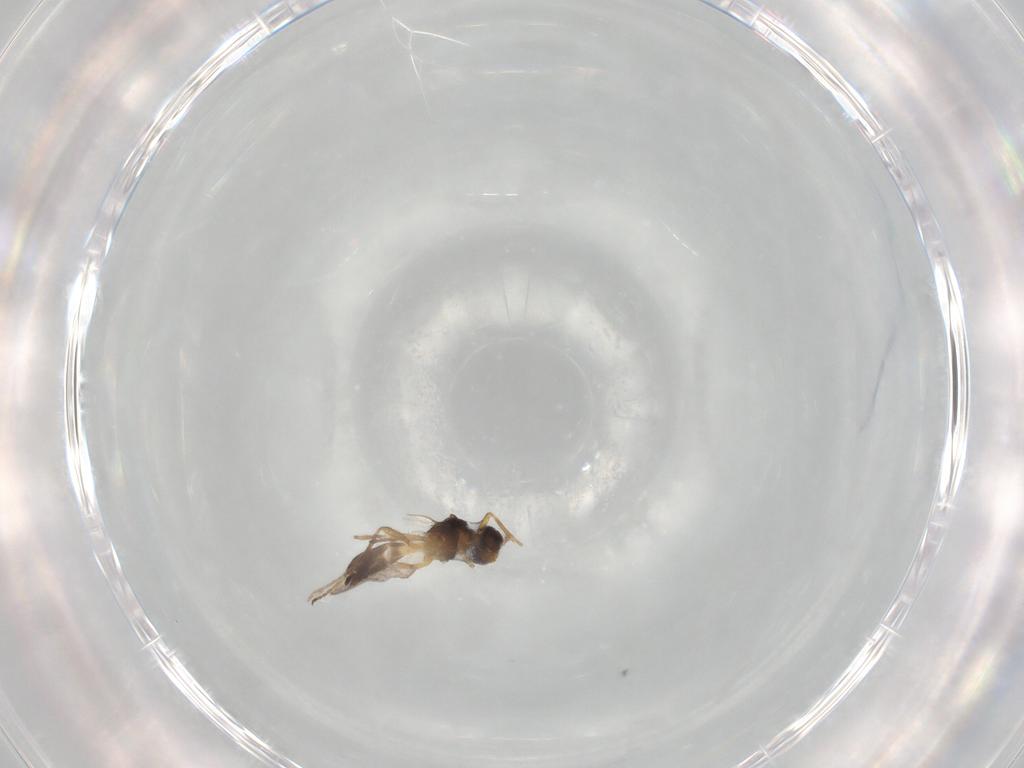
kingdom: Animalia
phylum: Arthropoda
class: Insecta
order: Hymenoptera
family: Braconidae
